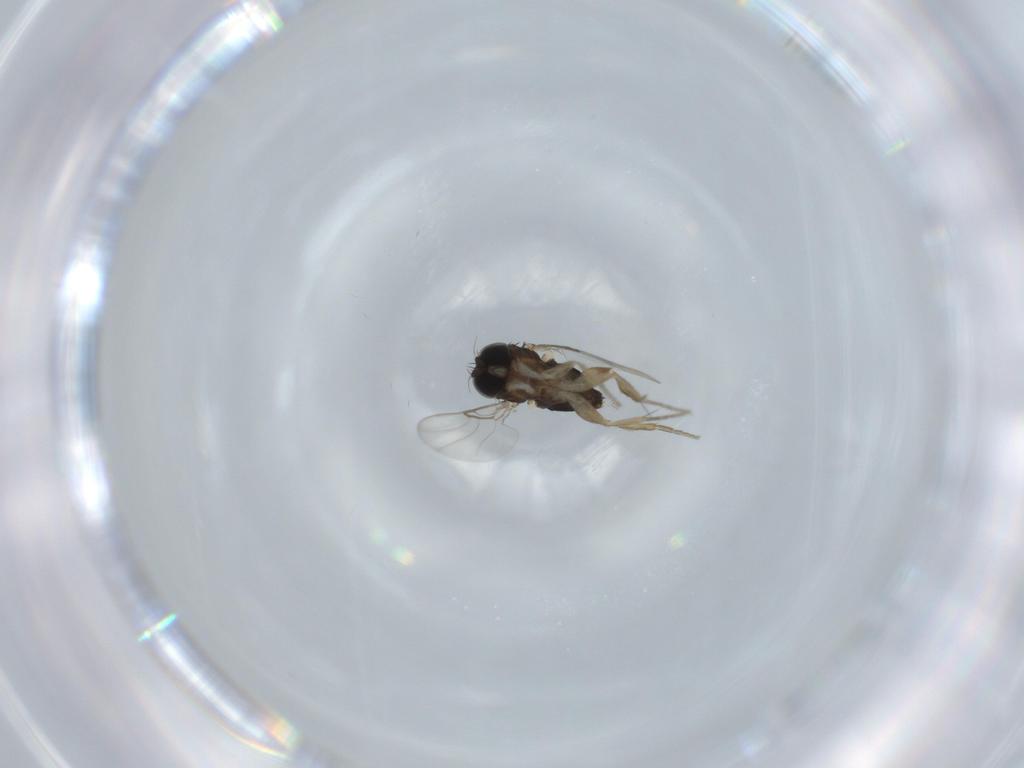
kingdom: Animalia
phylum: Arthropoda
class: Insecta
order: Diptera
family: Phoridae
